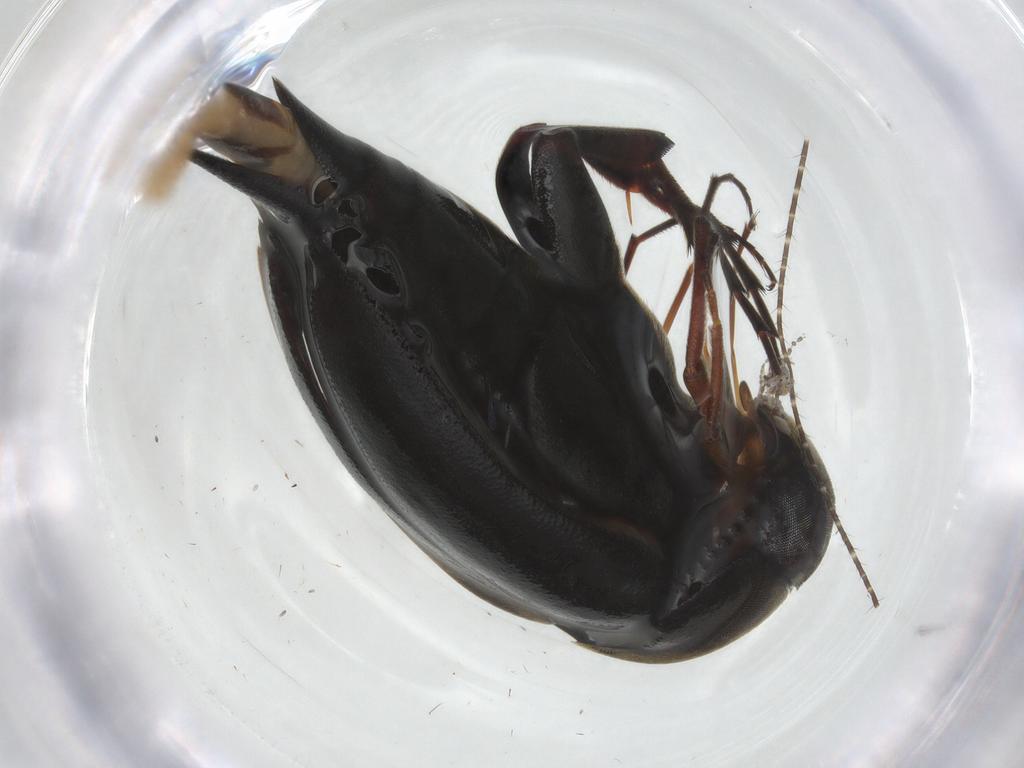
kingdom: Animalia
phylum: Arthropoda
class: Insecta
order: Coleoptera
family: Mordellidae
